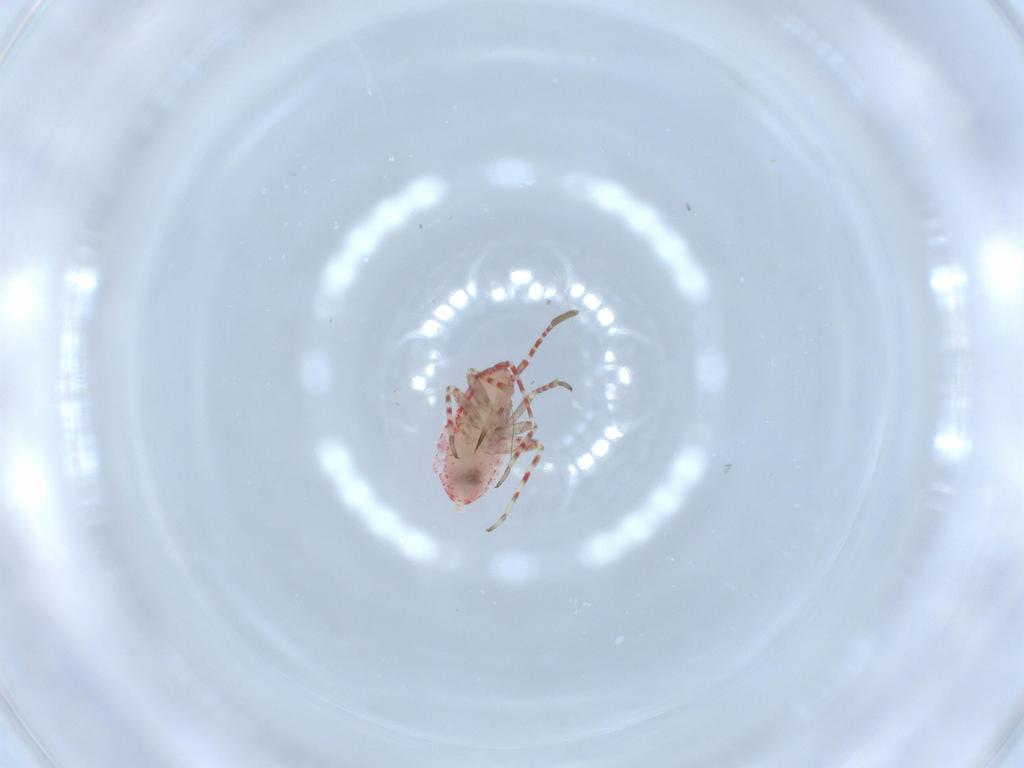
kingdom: Animalia
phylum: Arthropoda
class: Insecta
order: Hemiptera
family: Miridae
